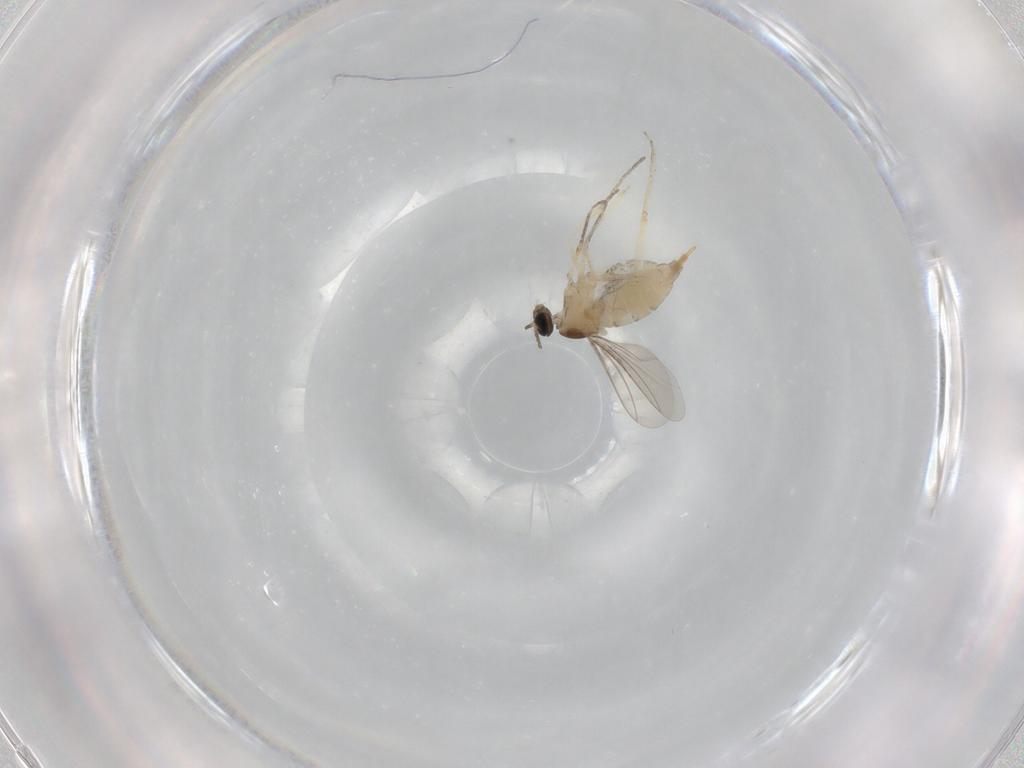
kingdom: Animalia
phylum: Arthropoda
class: Insecta
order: Diptera
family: Cecidomyiidae
